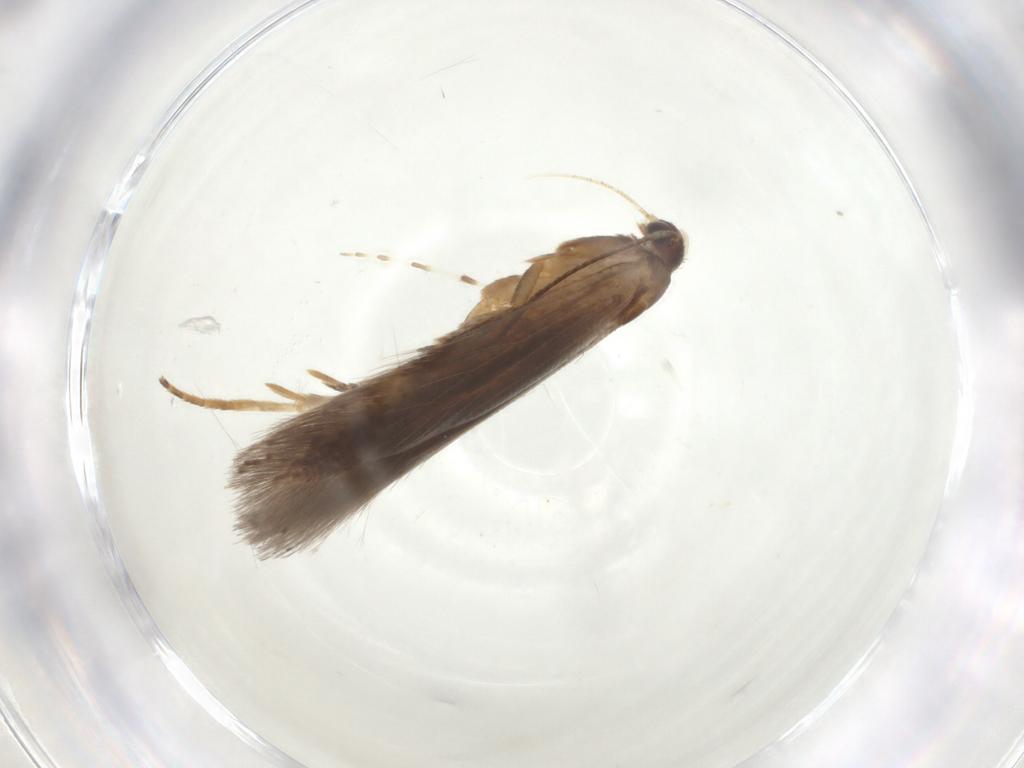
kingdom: Animalia
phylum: Arthropoda
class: Insecta
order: Lepidoptera
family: Gelechiidae
